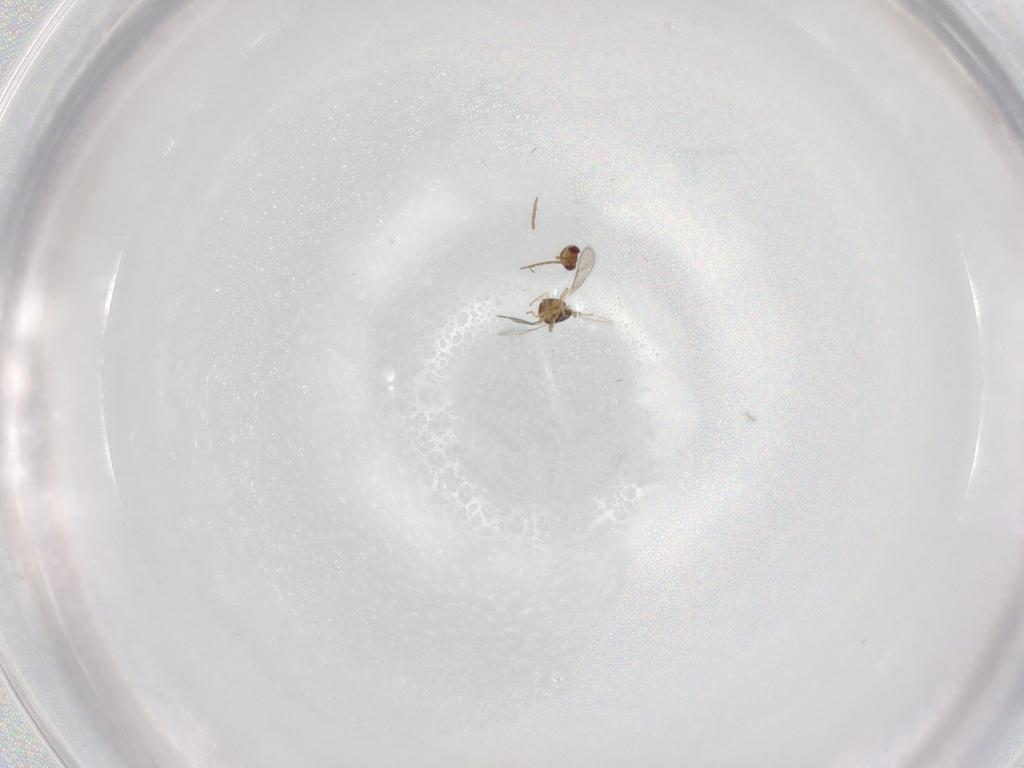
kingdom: Animalia
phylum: Arthropoda
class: Insecta
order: Hymenoptera
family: Aphelinidae
